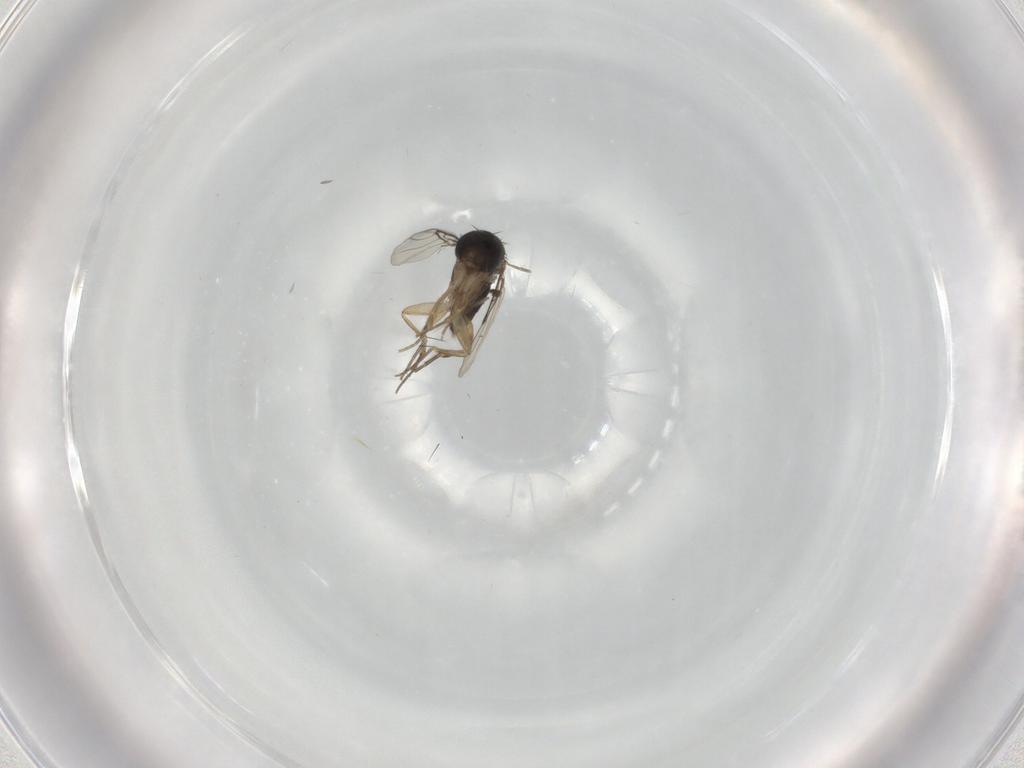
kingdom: Animalia
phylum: Arthropoda
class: Insecta
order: Diptera
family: Chironomidae
